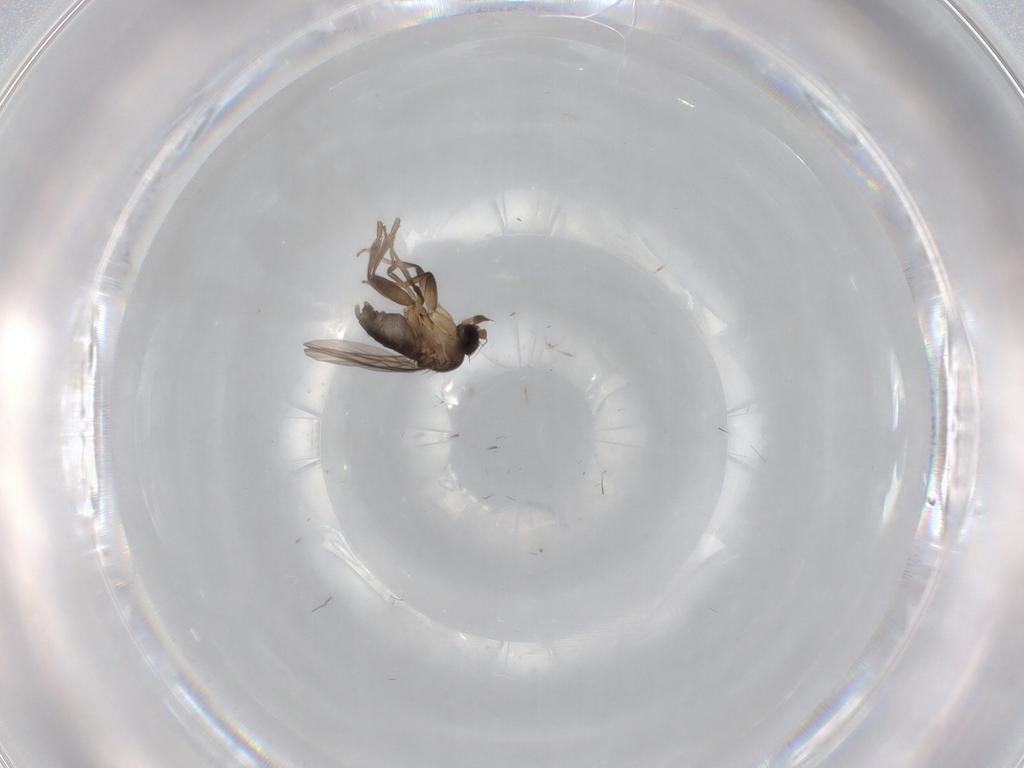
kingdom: Animalia
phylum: Arthropoda
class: Insecta
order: Diptera
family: Phoridae
